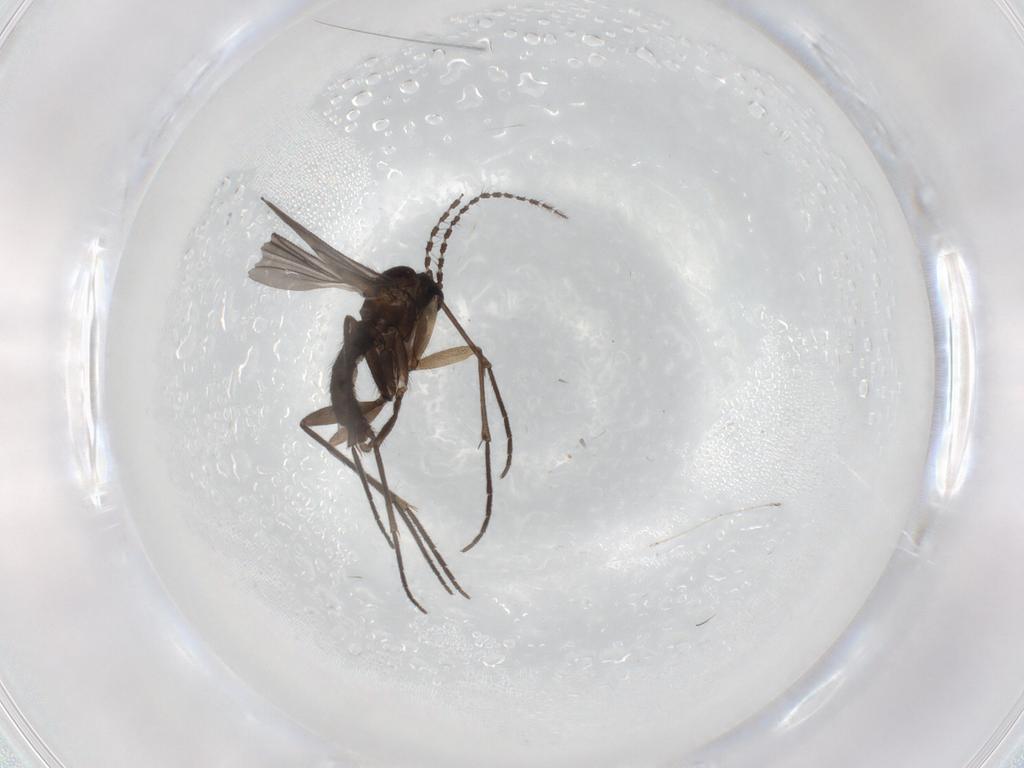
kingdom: Animalia
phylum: Arthropoda
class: Insecta
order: Diptera
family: Sciaridae
